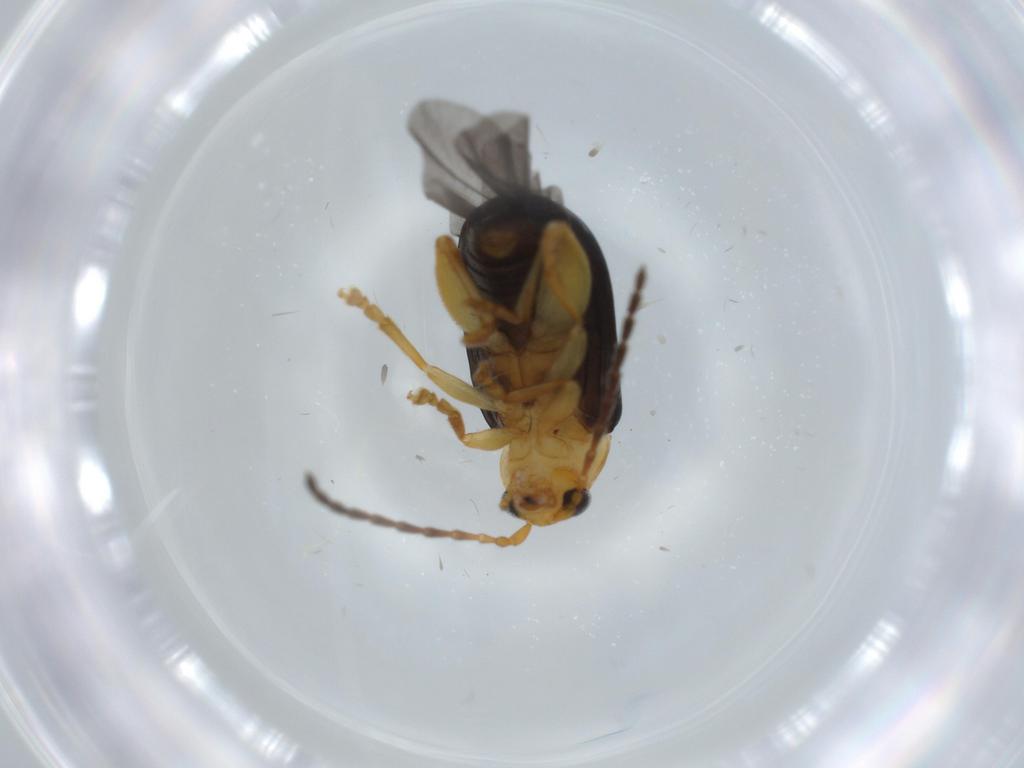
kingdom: Animalia
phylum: Arthropoda
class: Insecta
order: Coleoptera
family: Chrysomelidae
